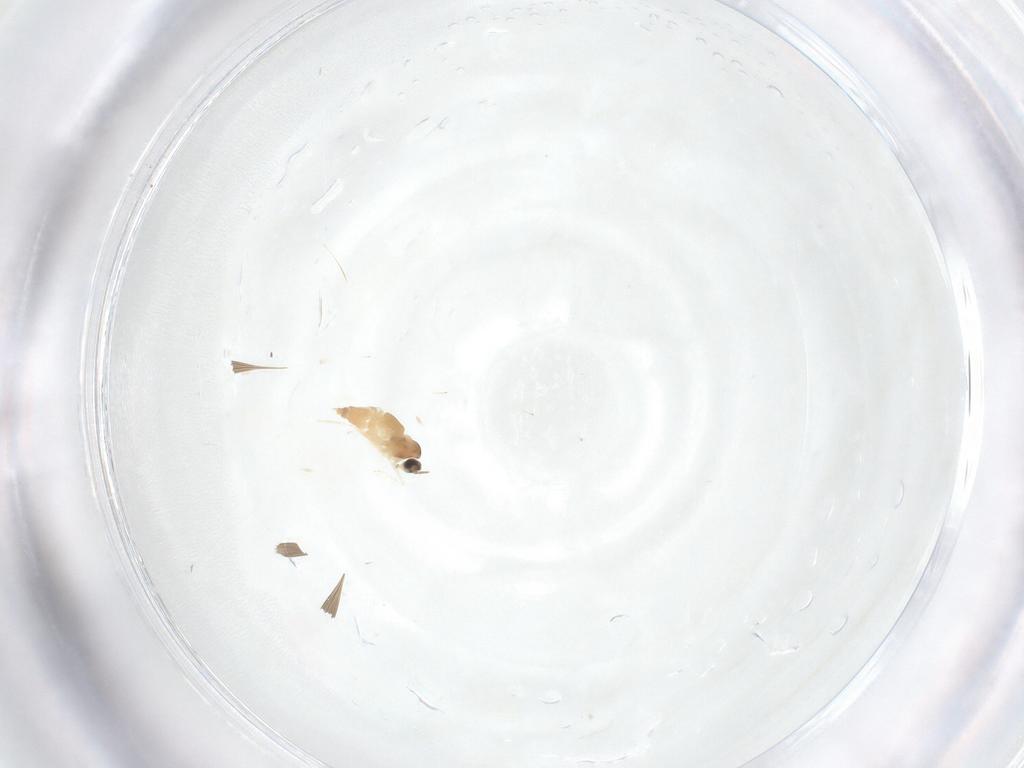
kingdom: Animalia
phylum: Arthropoda
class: Insecta
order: Diptera
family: Cecidomyiidae
